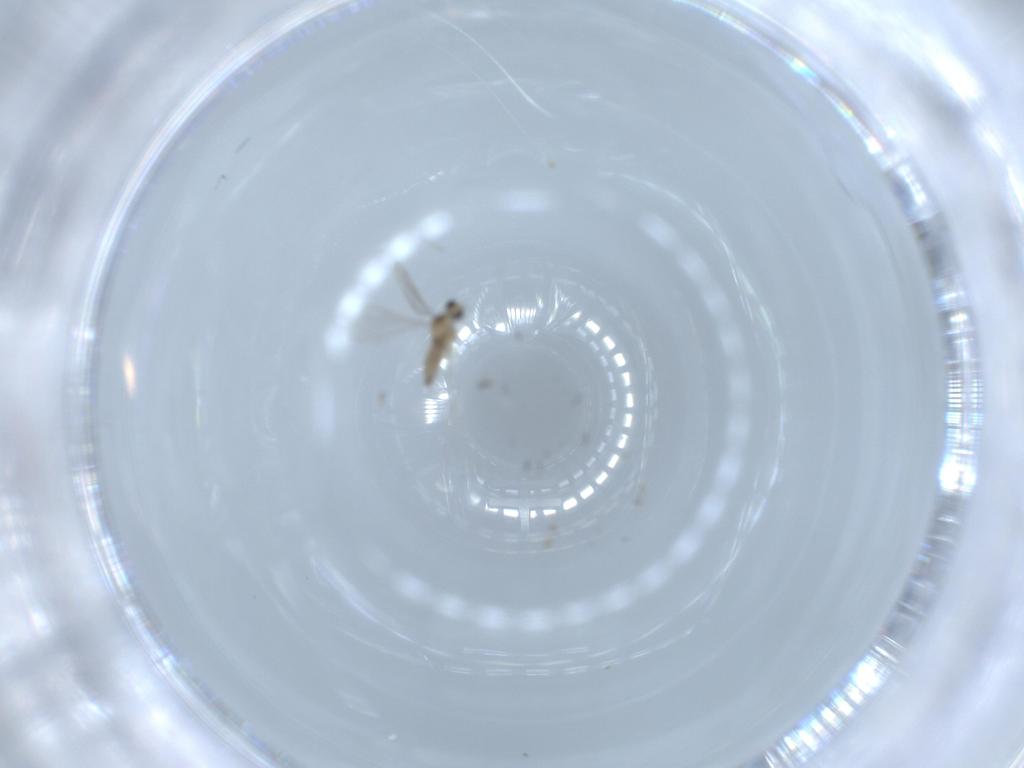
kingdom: Animalia
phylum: Arthropoda
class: Insecta
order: Diptera
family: Cecidomyiidae
